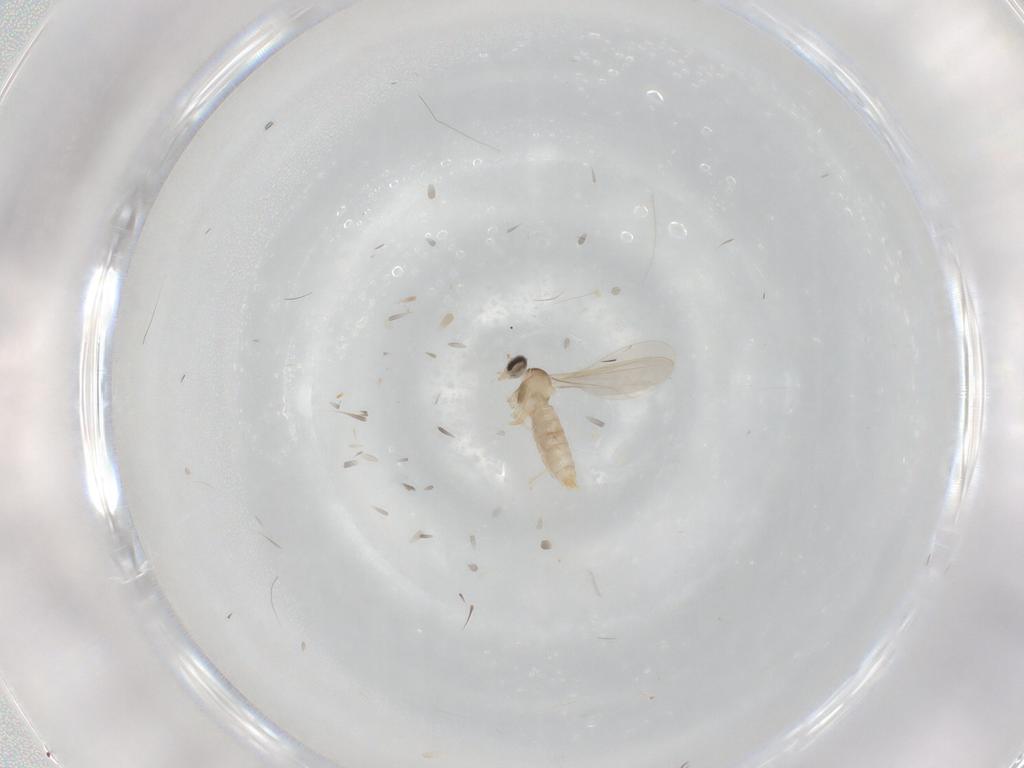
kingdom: Animalia
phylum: Arthropoda
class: Insecta
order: Diptera
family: Cecidomyiidae
